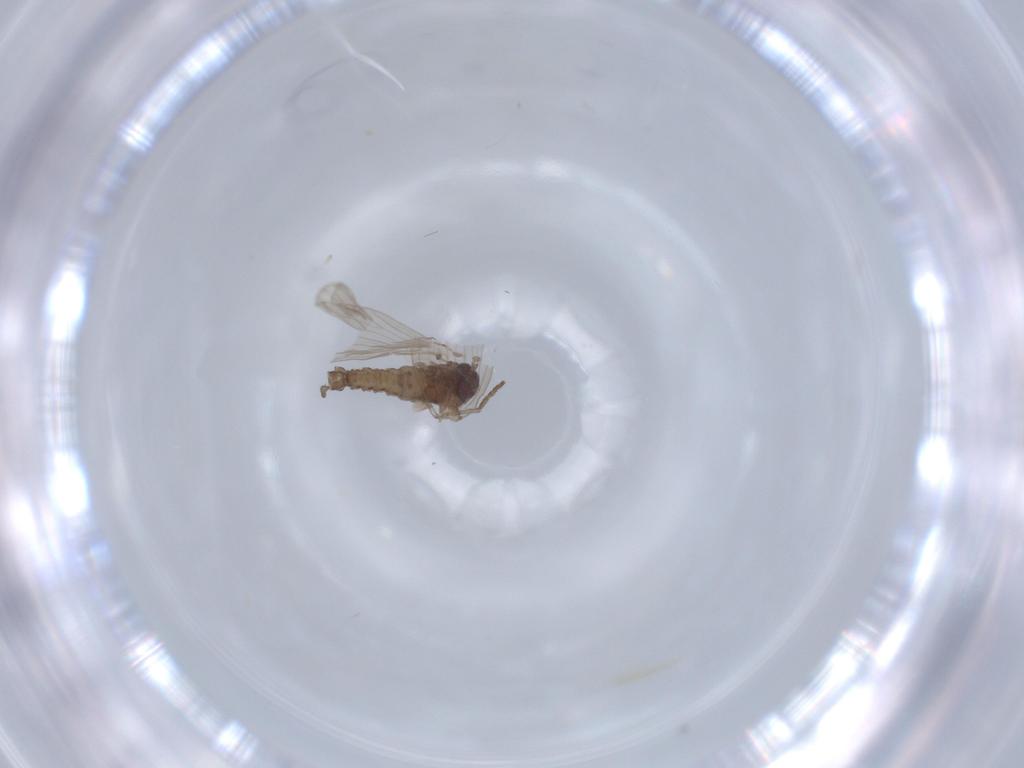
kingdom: Animalia
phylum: Arthropoda
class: Insecta
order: Diptera
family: Psychodidae
